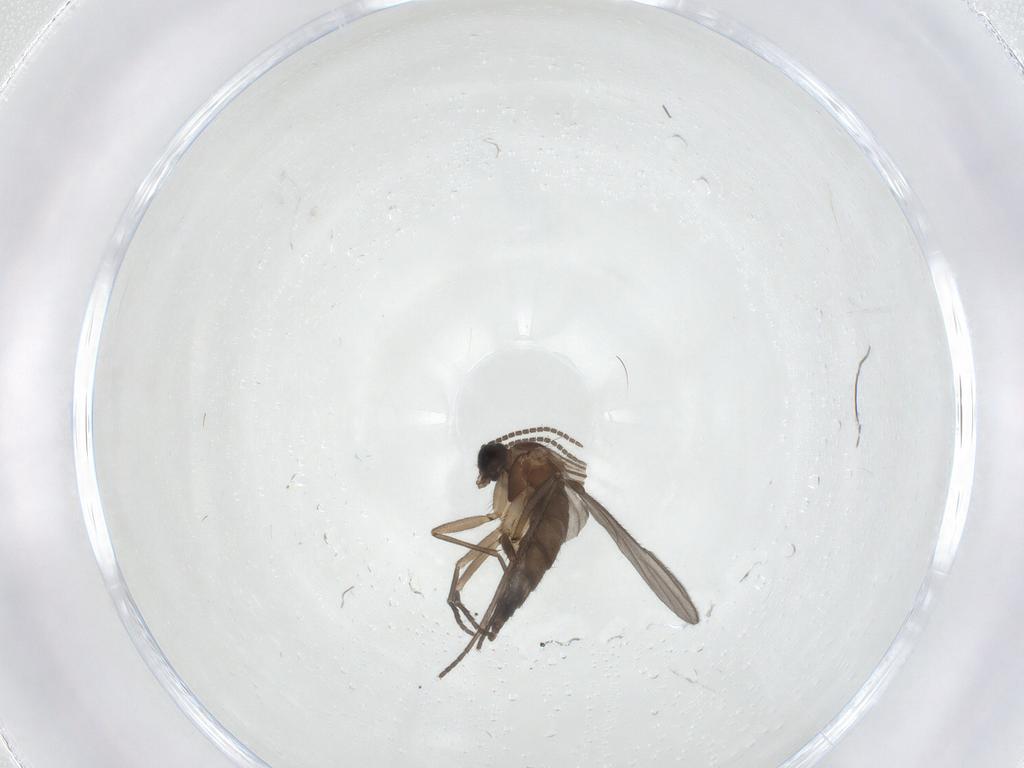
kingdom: Animalia
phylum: Arthropoda
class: Insecta
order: Diptera
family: Sciaridae
